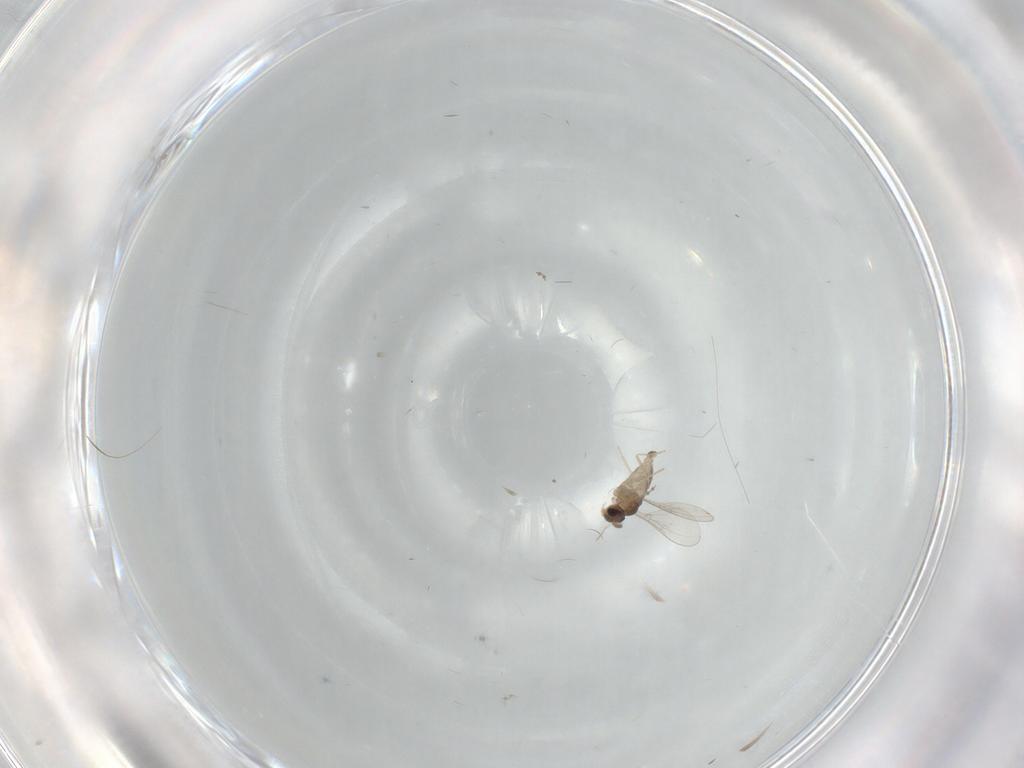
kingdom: Animalia
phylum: Arthropoda
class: Insecta
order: Diptera
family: Cecidomyiidae
